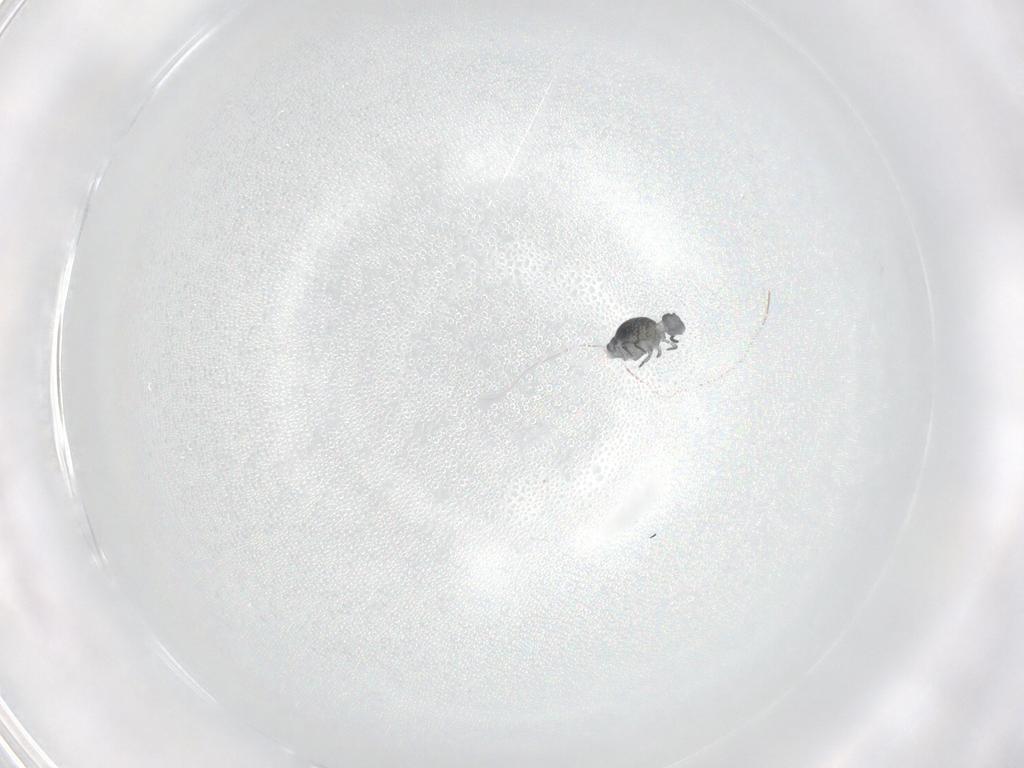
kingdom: Animalia
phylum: Arthropoda
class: Collembola
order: Symphypleona
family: Katiannidae
